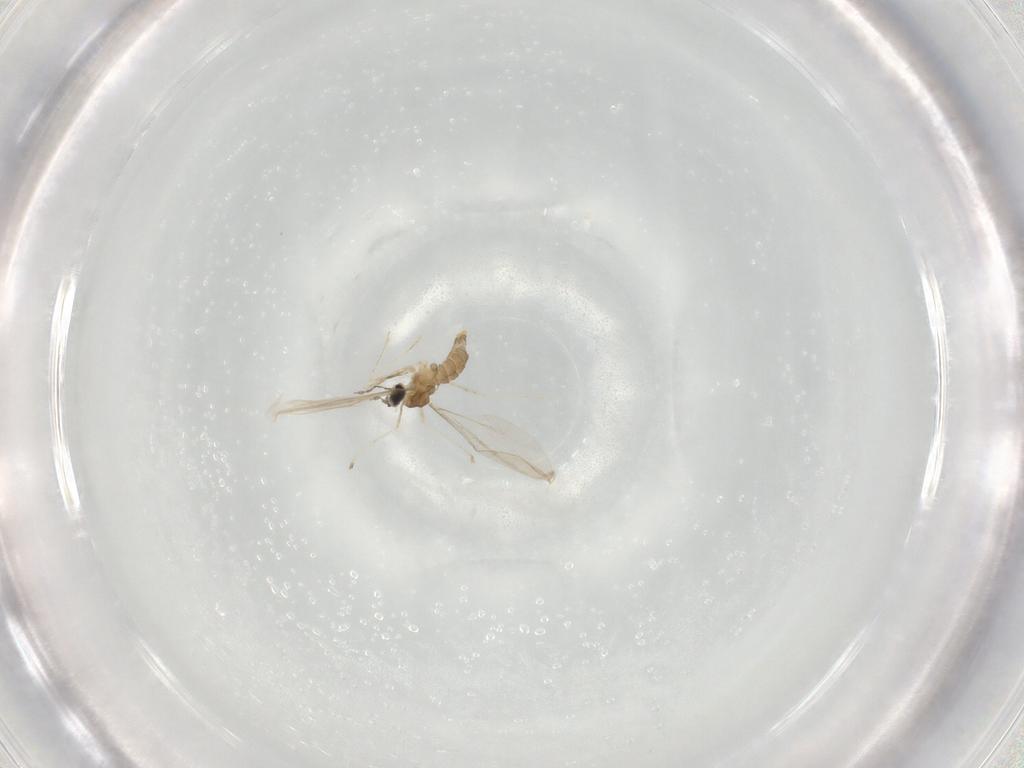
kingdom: Animalia
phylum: Arthropoda
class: Insecta
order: Diptera
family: Cecidomyiidae
